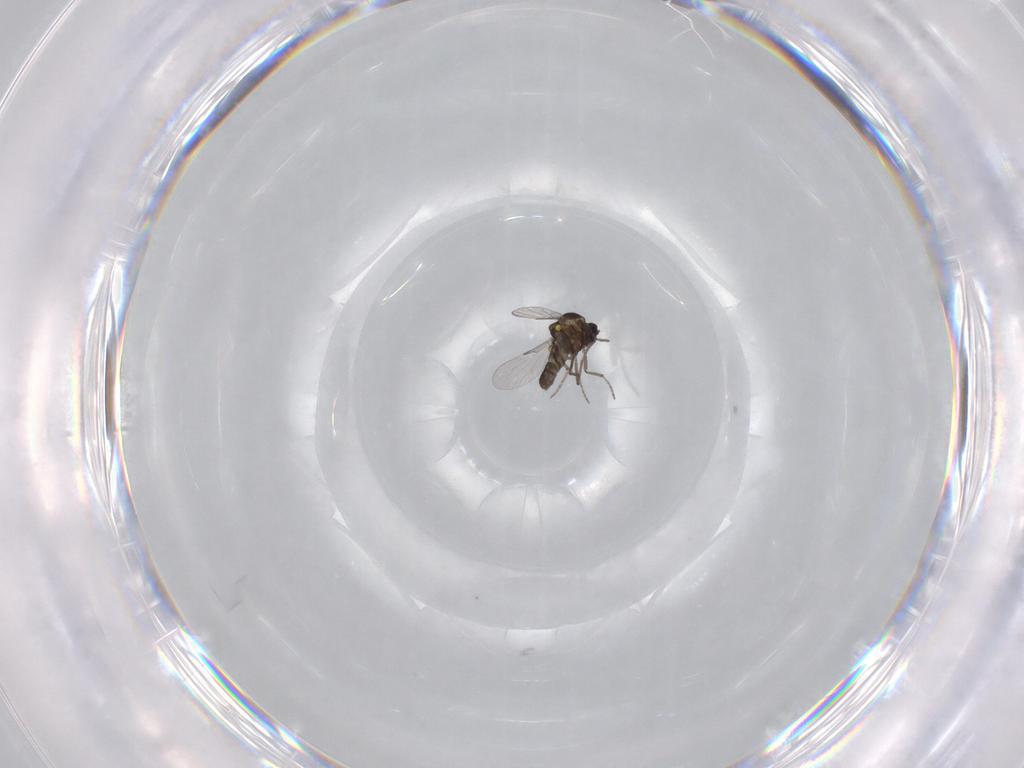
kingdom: Animalia
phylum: Arthropoda
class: Insecta
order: Diptera
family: Ceratopogonidae
